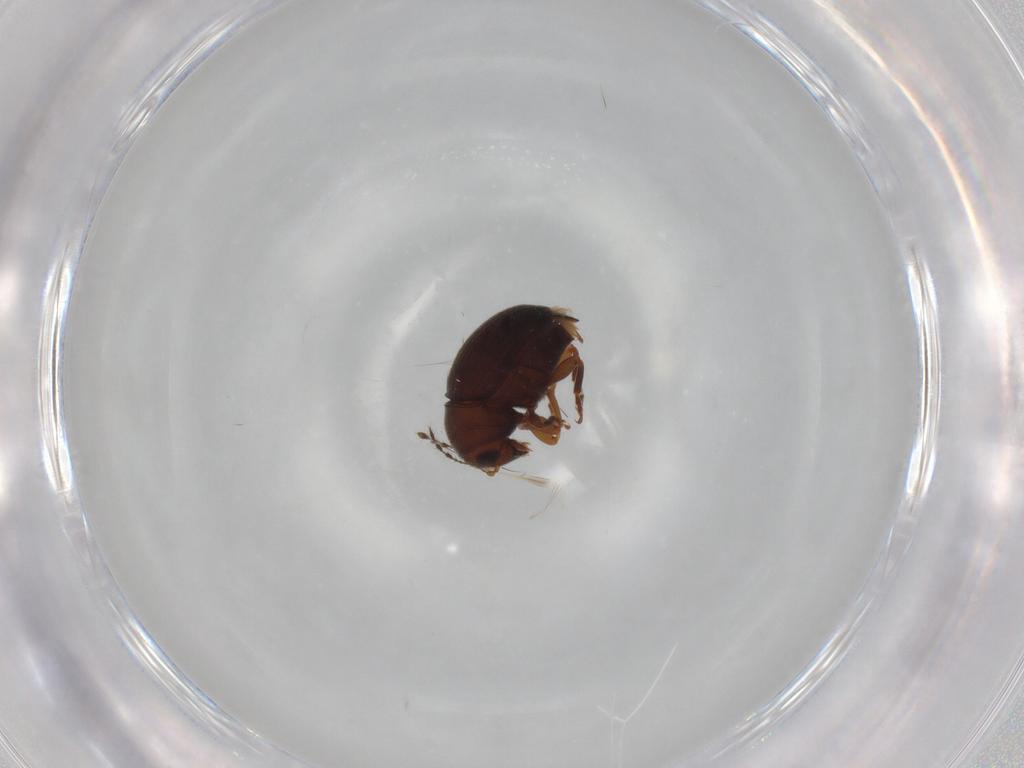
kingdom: Animalia
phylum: Arthropoda
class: Insecta
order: Coleoptera
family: Anthribidae
